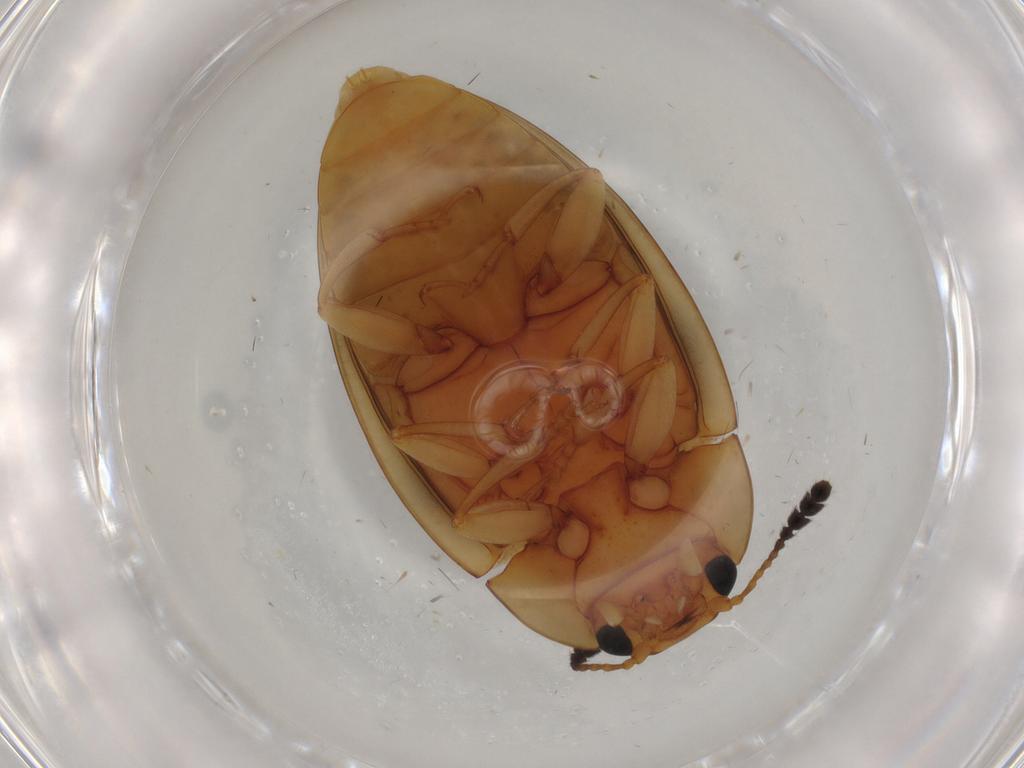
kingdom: Animalia
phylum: Arthropoda
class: Insecta
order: Coleoptera
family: Erotylidae
